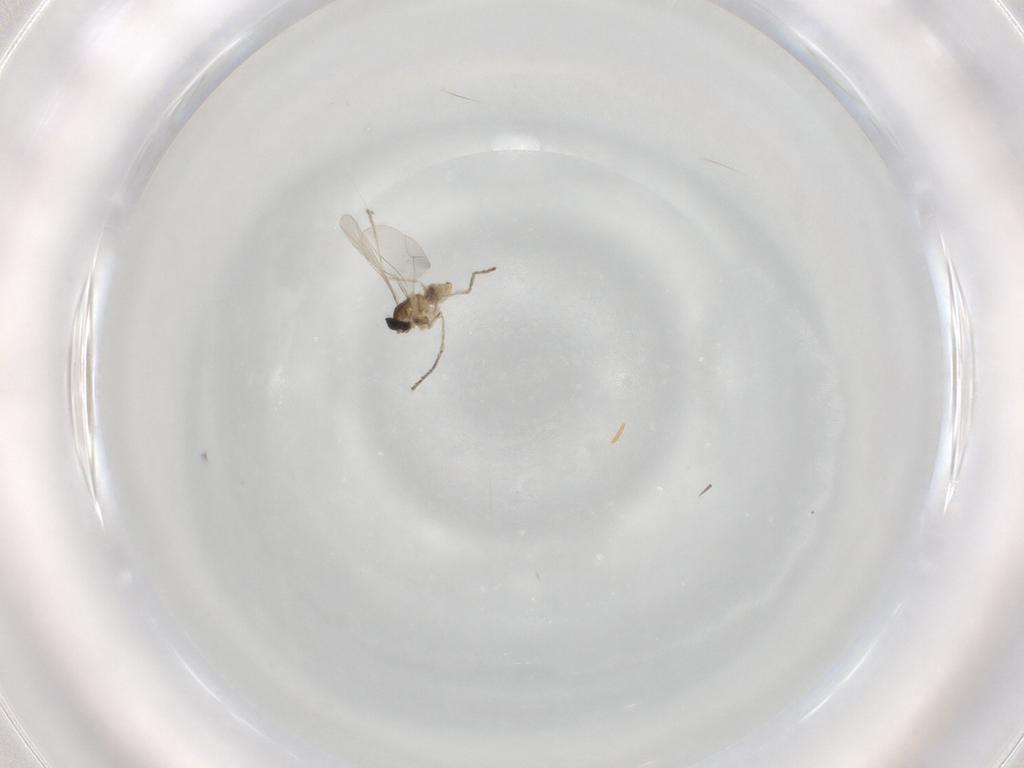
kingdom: Animalia
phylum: Arthropoda
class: Insecta
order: Diptera
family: Cecidomyiidae
